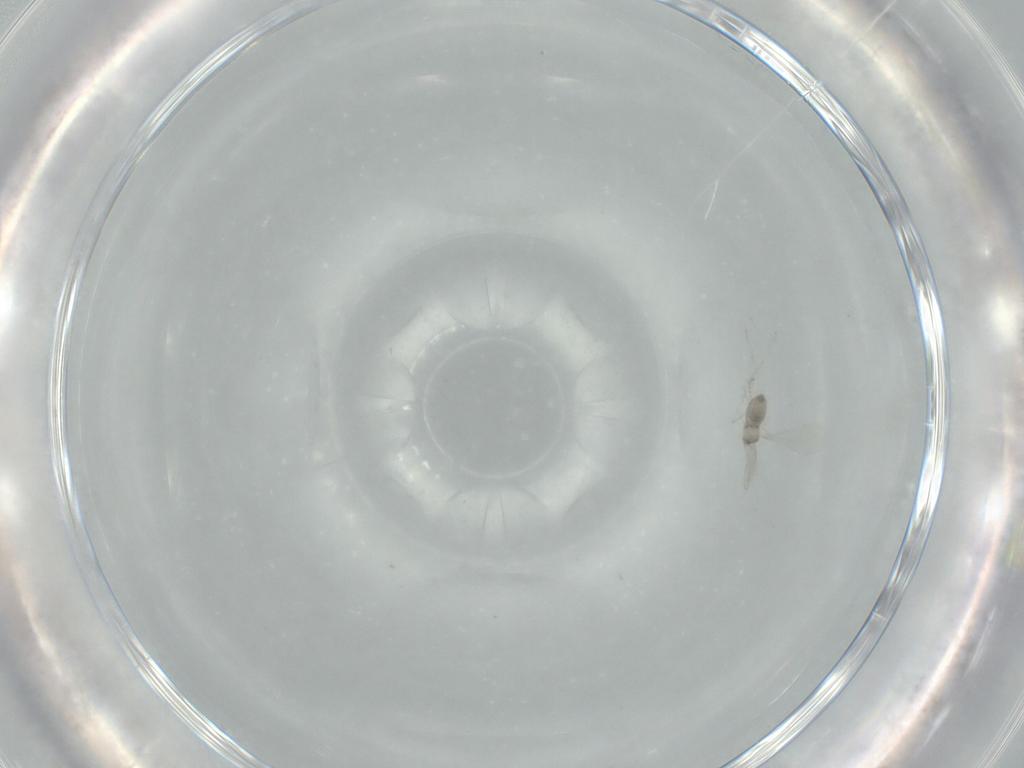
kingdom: Animalia
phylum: Arthropoda
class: Insecta
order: Diptera
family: Cecidomyiidae
